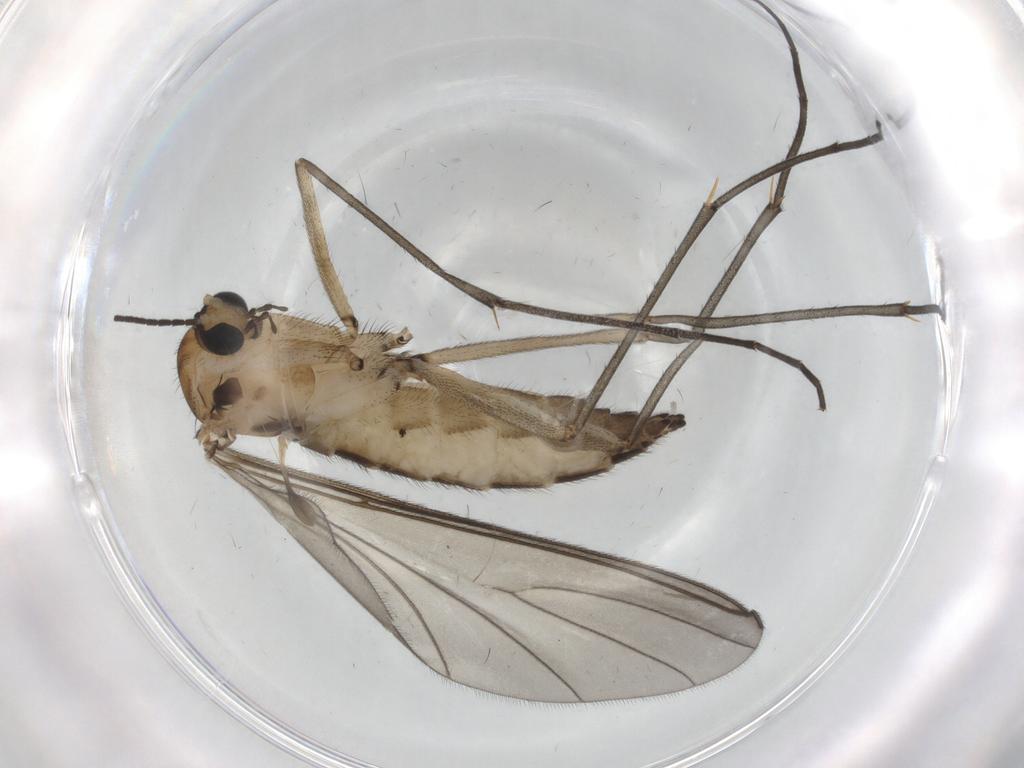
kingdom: Animalia
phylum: Arthropoda
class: Insecta
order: Diptera
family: Sciaridae
